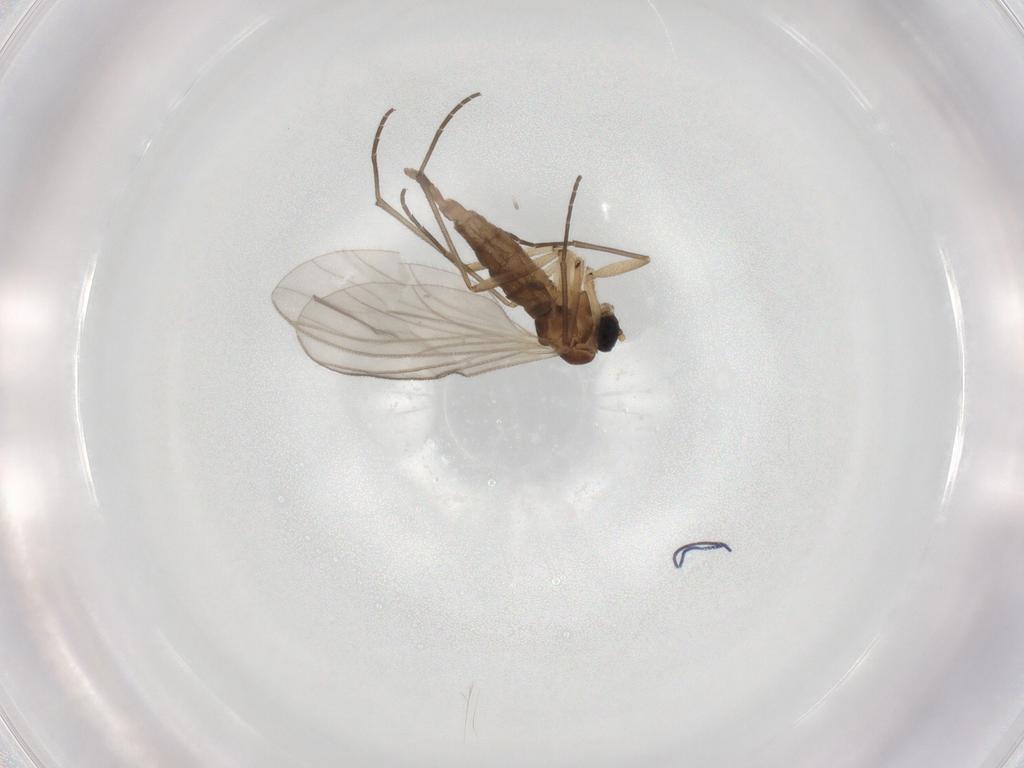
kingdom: Animalia
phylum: Arthropoda
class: Insecta
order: Diptera
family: Sciaridae
